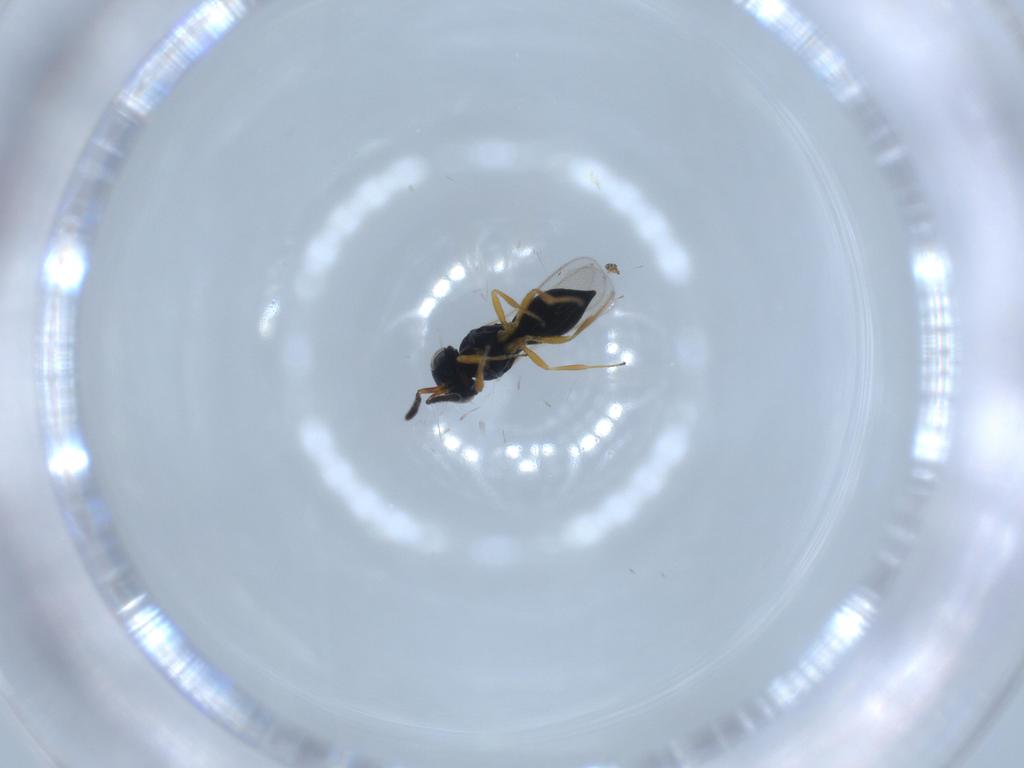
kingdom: Animalia
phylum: Arthropoda
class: Insecta
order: Hymenoptera
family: Scelionidae
